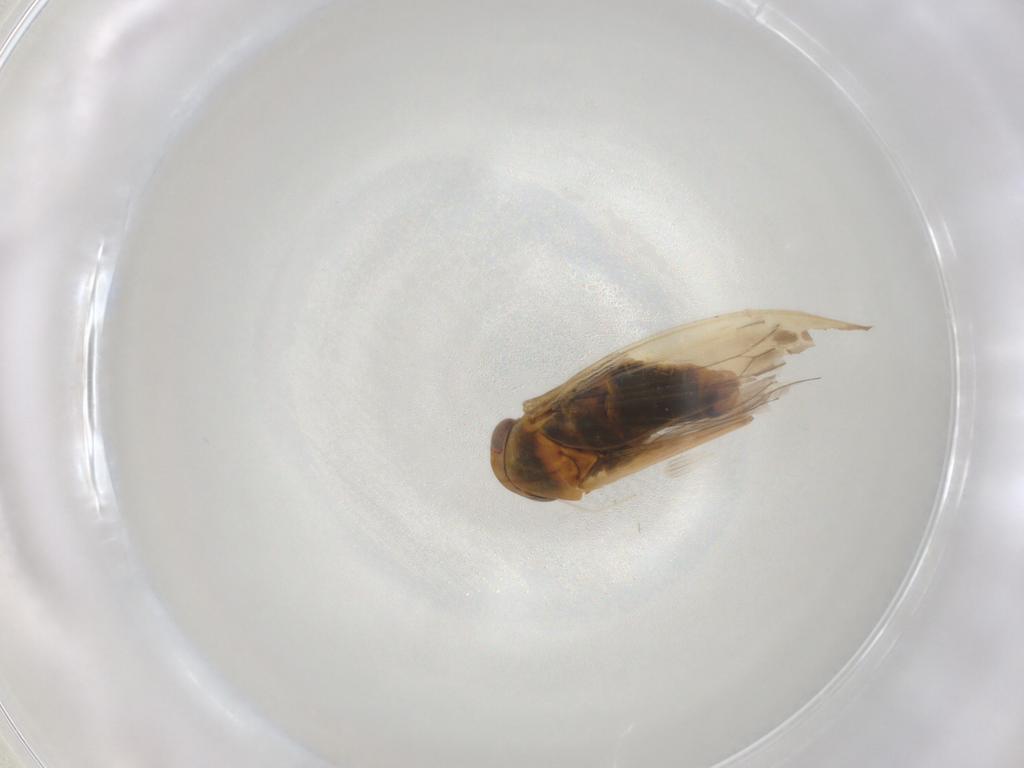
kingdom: Animalia
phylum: Arthropoda
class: Insecta
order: Hemiptera
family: Cicadellidae
